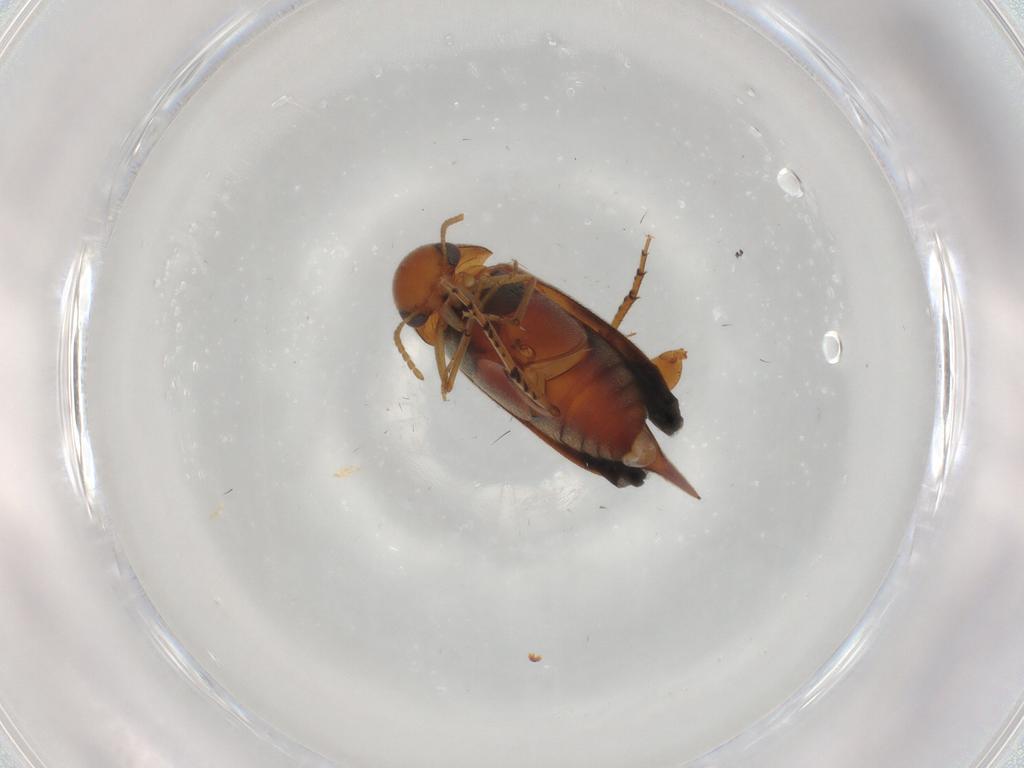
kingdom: Animalia
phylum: Arthropoda
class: Insecta
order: Coleoptera
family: Mordellidae
